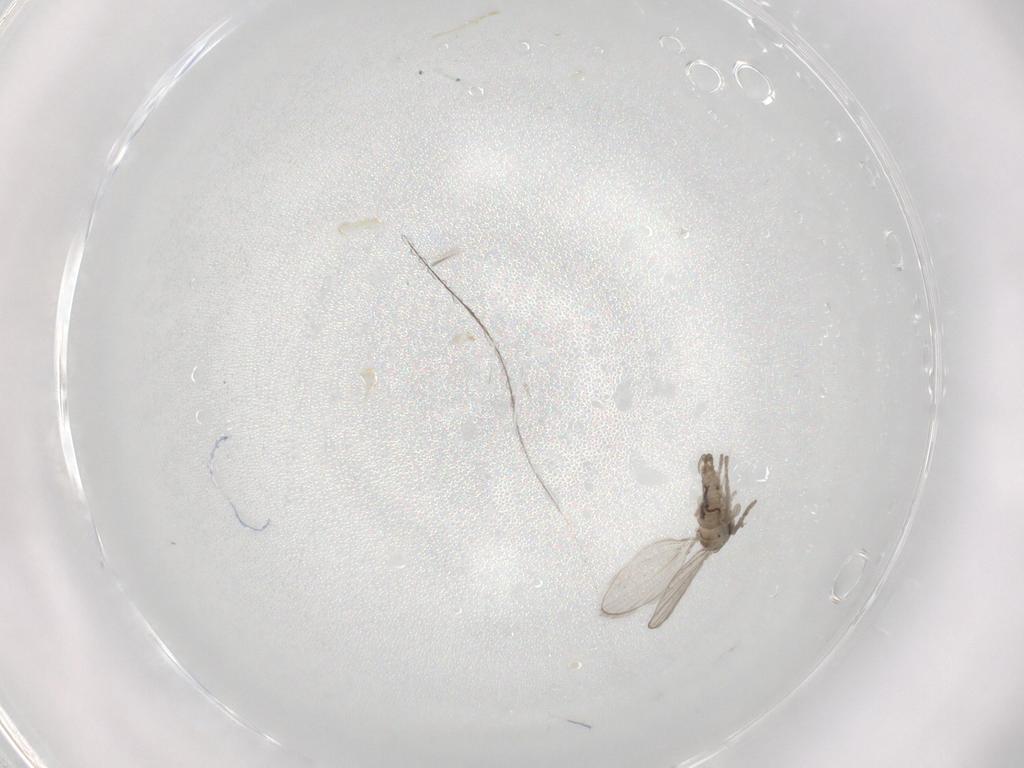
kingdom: Animalia
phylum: Arthropoda
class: Insecta
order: Diptera
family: Psychodidae
